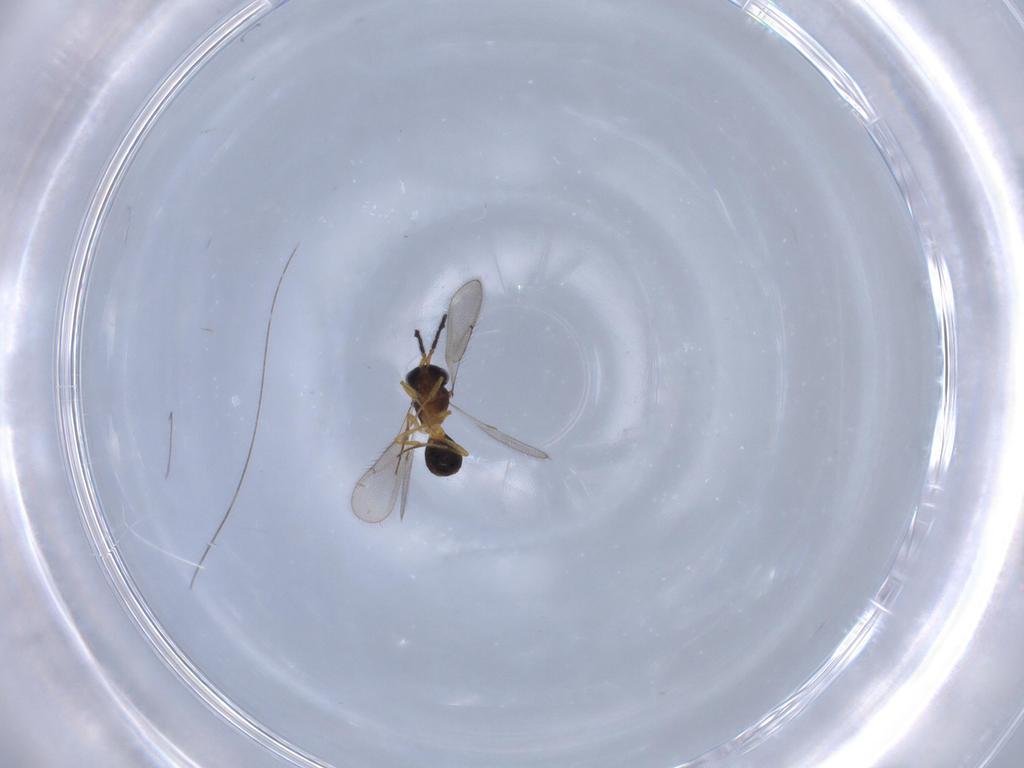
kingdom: Animalia
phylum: Arthropoda
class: Insecta
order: Hymenoptera
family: Scelionidae
